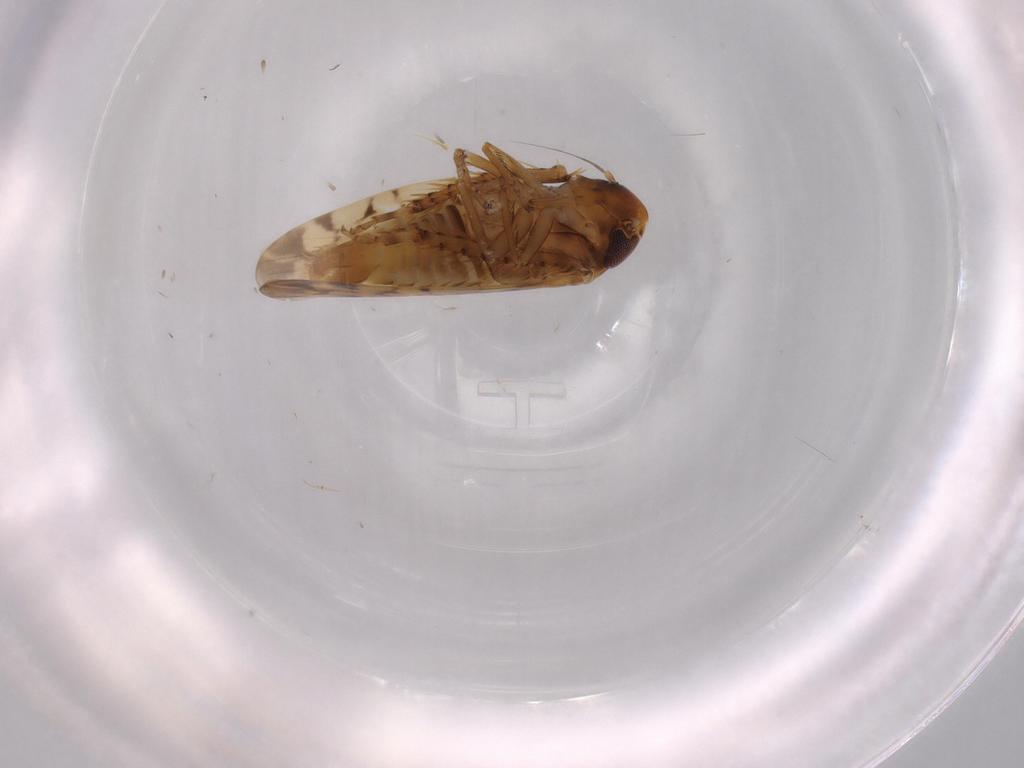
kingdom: Animalia
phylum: Arthropoda
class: Insecta
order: Hemiptera
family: Cicadellidae
